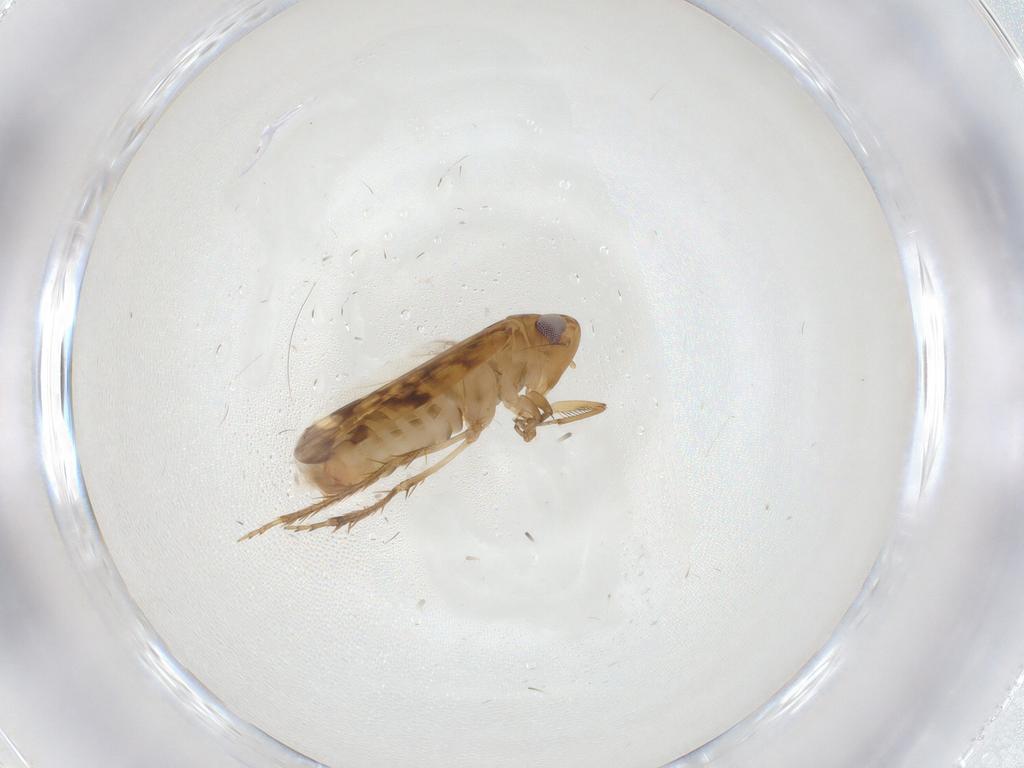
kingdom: Animalia
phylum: Arthropoda
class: Insecta
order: Hemiptera
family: Cicadellidae
